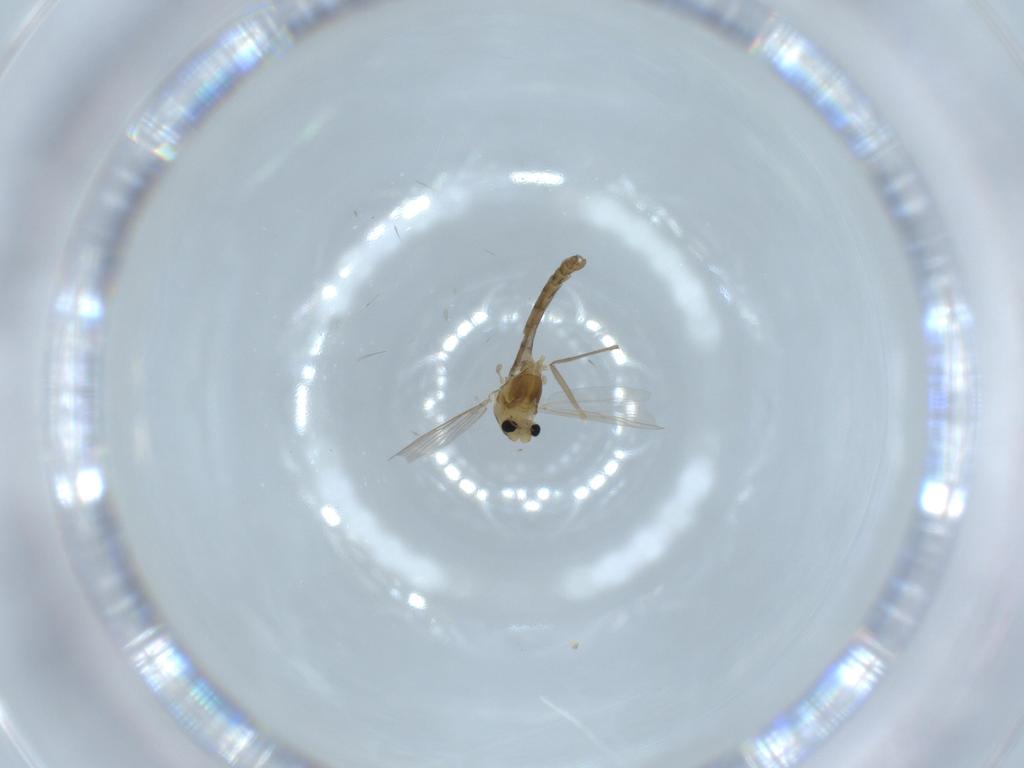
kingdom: Animalia
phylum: Arthropoda
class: Insecta
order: Diptera
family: Chironomidae
